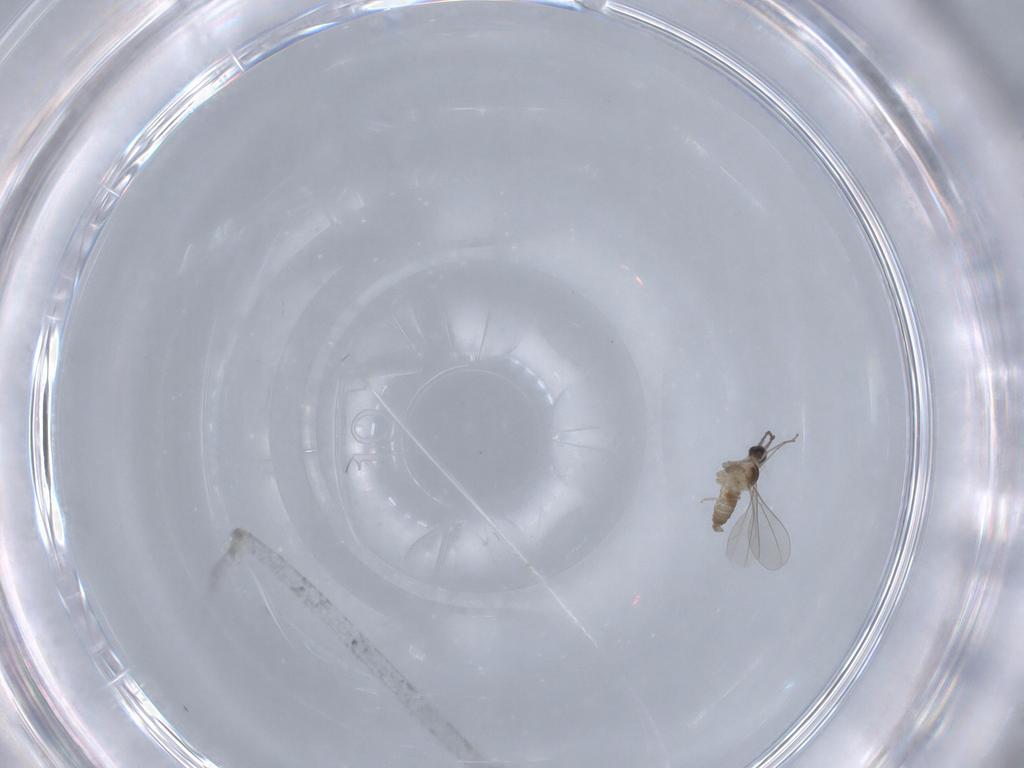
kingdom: Animalia
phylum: Arthropoda
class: Insecta
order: Diptera
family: Cecidomyiidae
